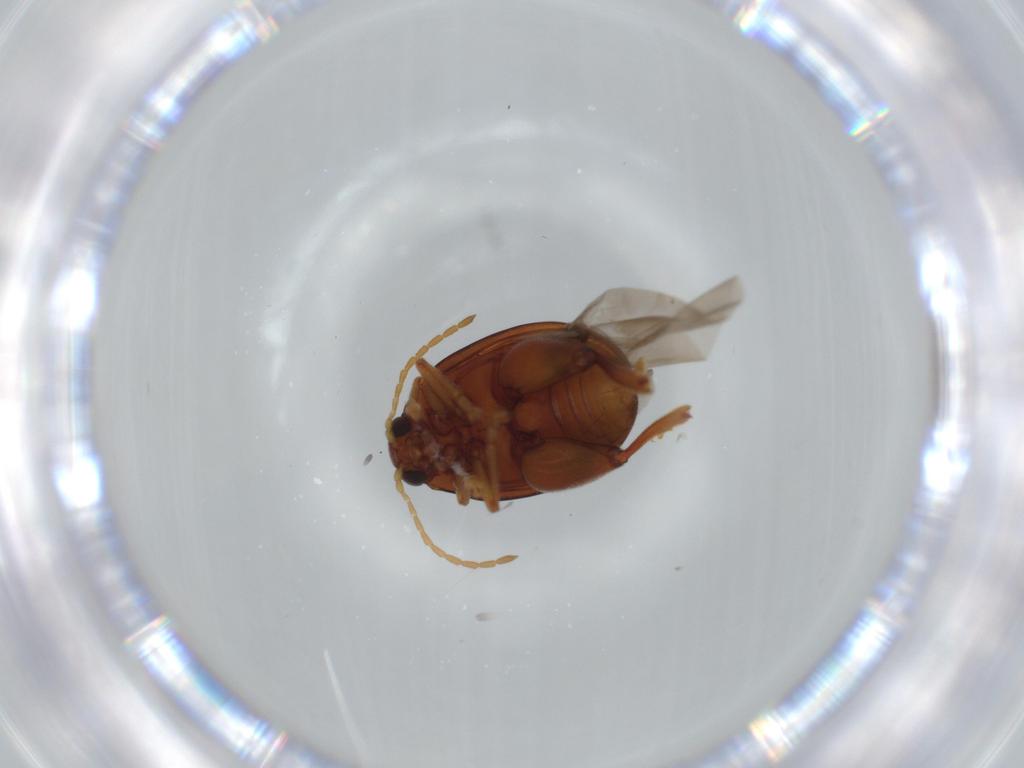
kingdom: Animalia
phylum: Arthropoda
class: Insecta
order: Coleoptera
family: Chrysomelidae
